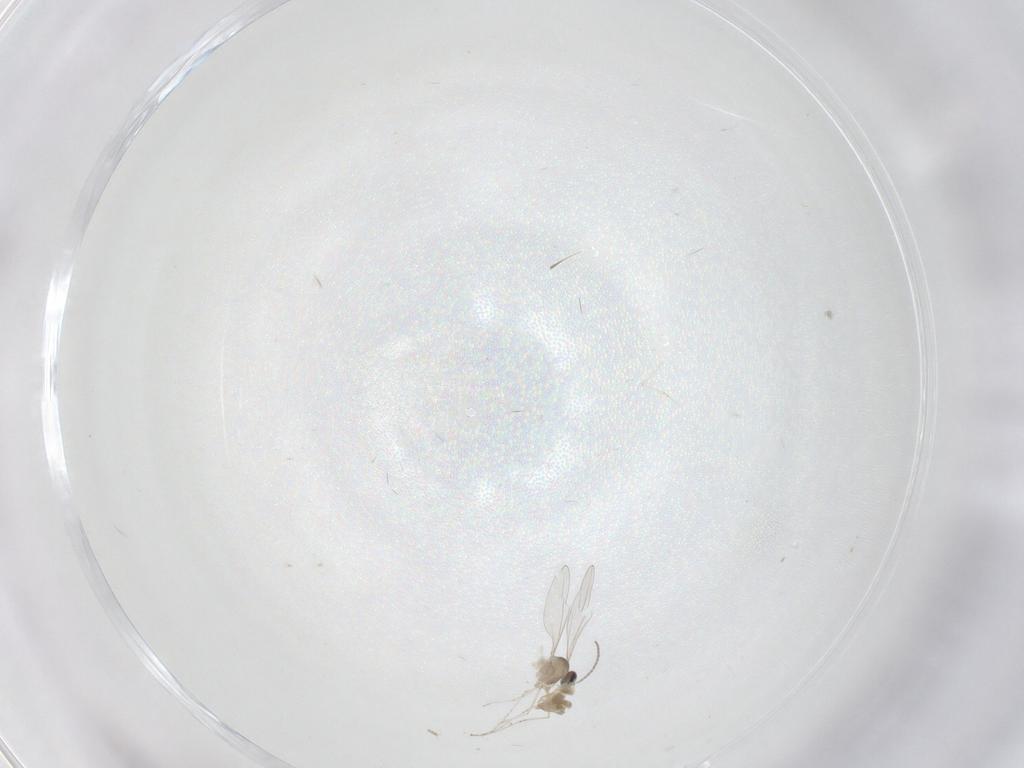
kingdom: Animalia
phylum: Arthropoda
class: Insecta
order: Diptera
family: Cecidomyiidae
